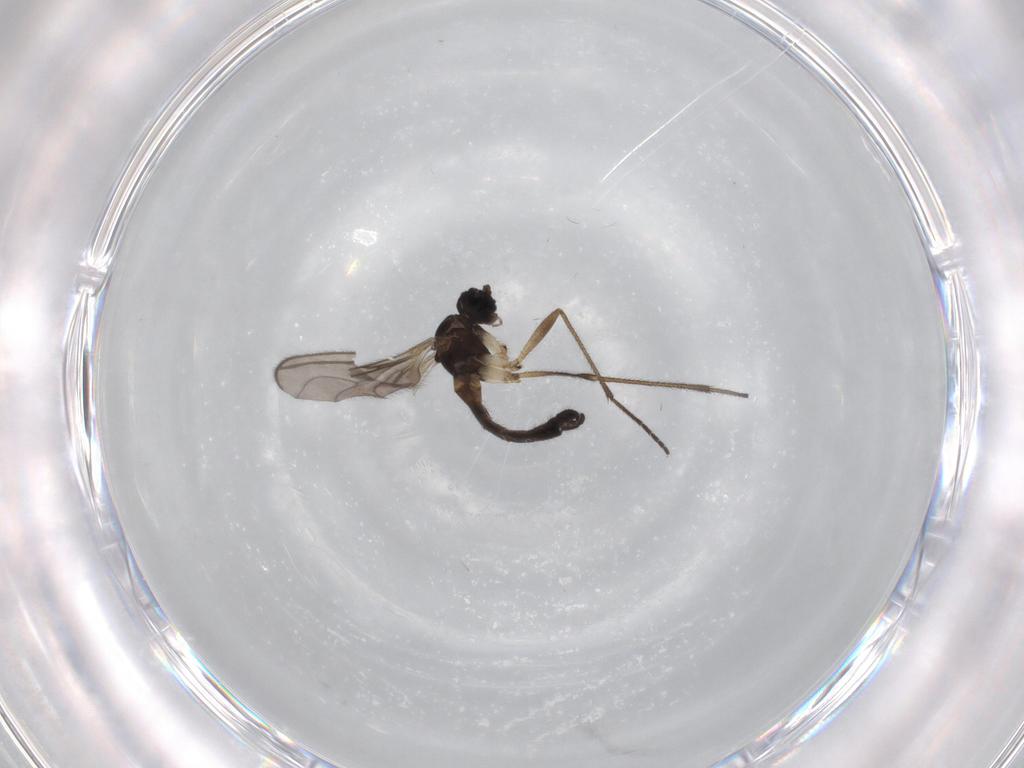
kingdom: Animalia
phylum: Arthropoda
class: Insecta
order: Diptera
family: Sciaridae
